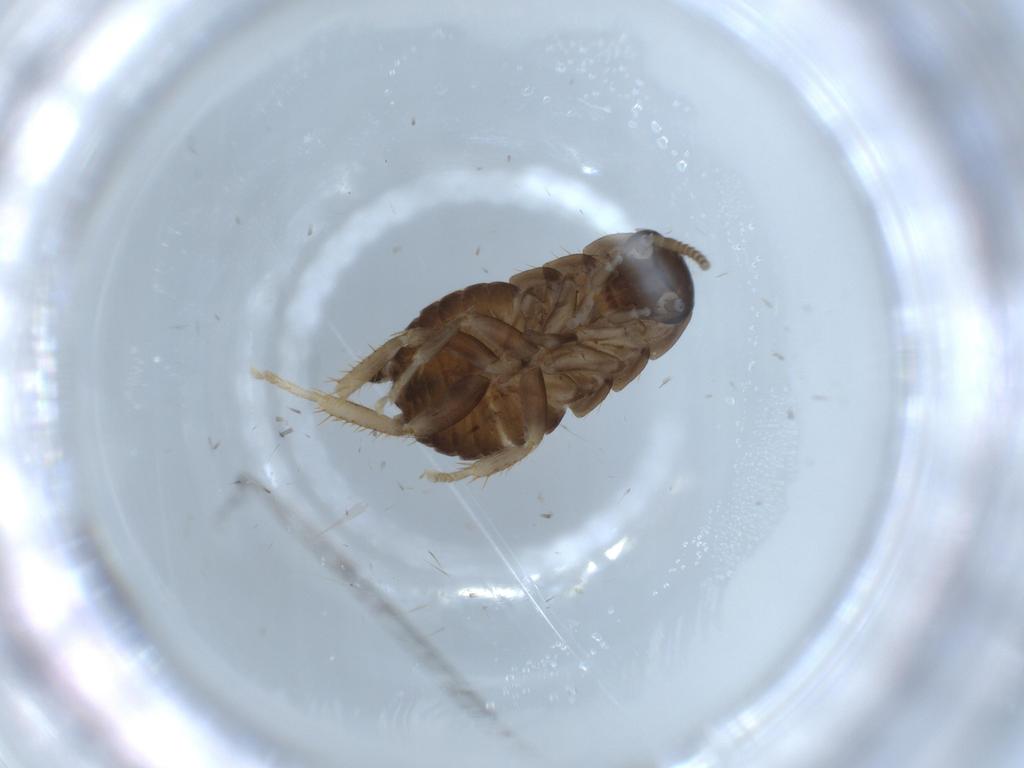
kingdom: Animalia
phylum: Arthropoda
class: Insecta
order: Blattodea
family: Ectobiidae
